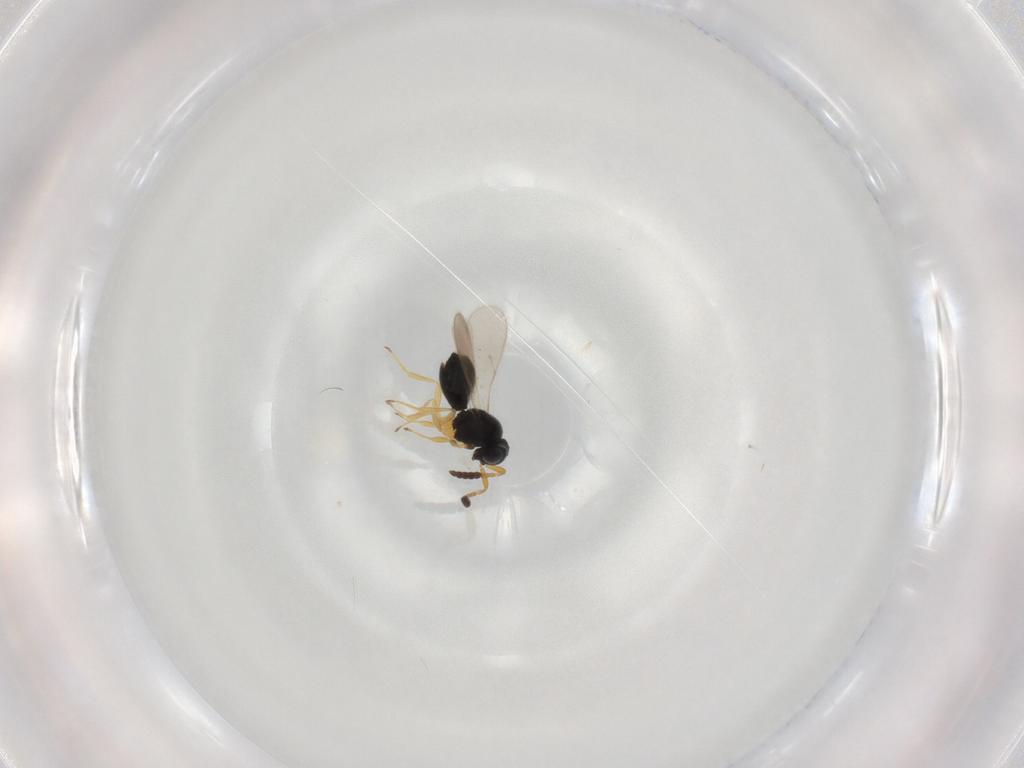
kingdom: Animalia
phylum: Arthropoda
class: Insecta
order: Hymenoptera
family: Scelionidae
